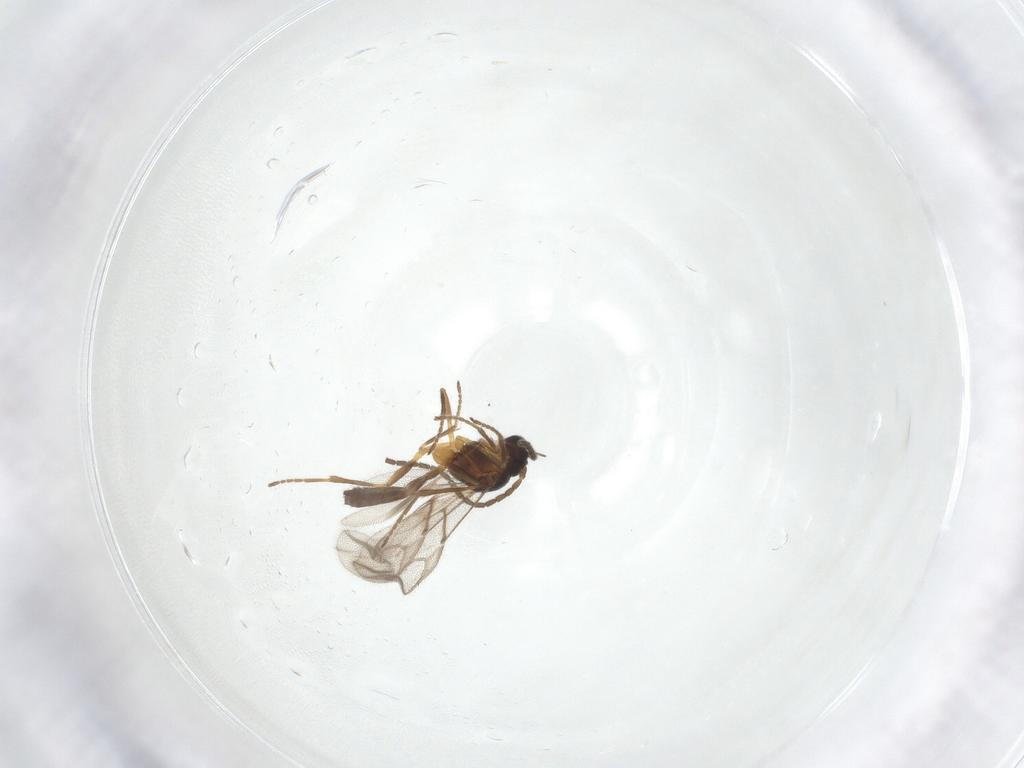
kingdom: Animalia
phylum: Arthropoda
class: Insecta
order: Hymenoptera
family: Braconidae
